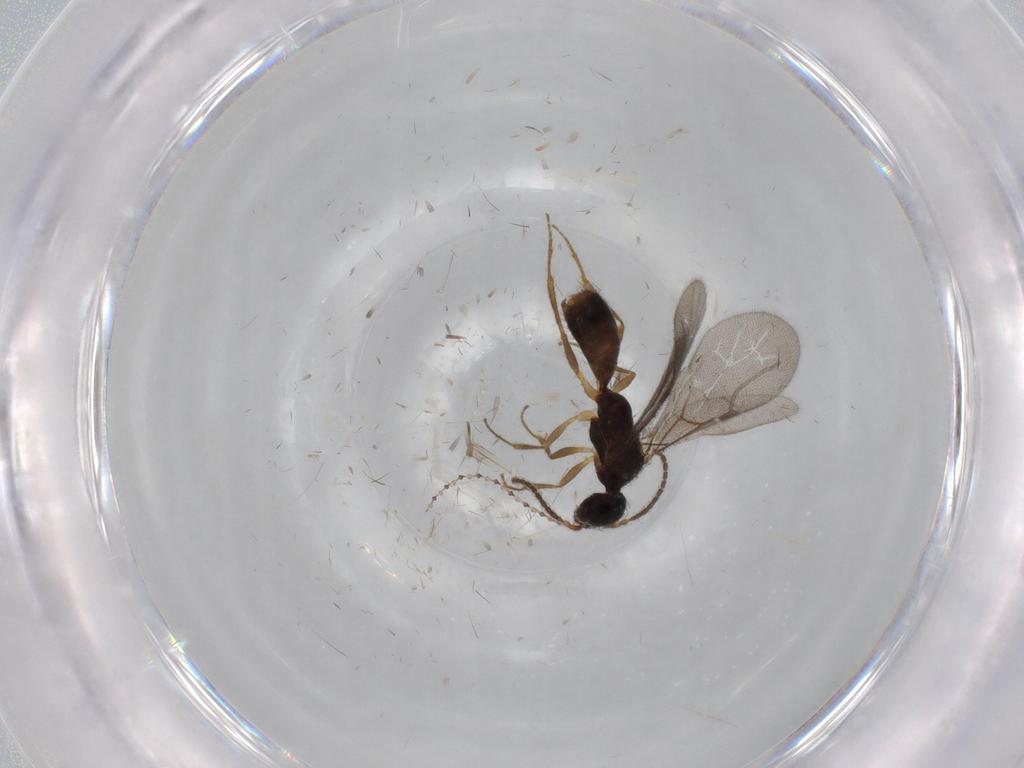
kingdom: Animalia
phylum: Arthropoda
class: Insecta
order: Hymenoptera
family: Bethylidae
